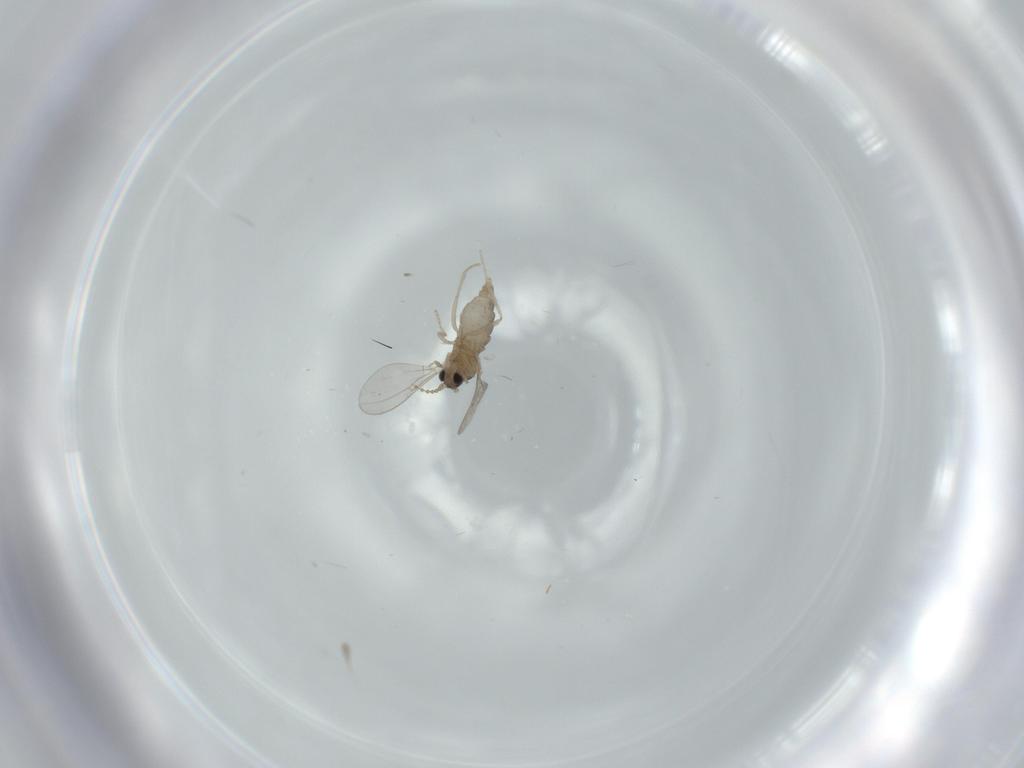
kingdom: Animalia
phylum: Arthropoda
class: Insecta
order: Diptera
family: Cecidomyiidae
